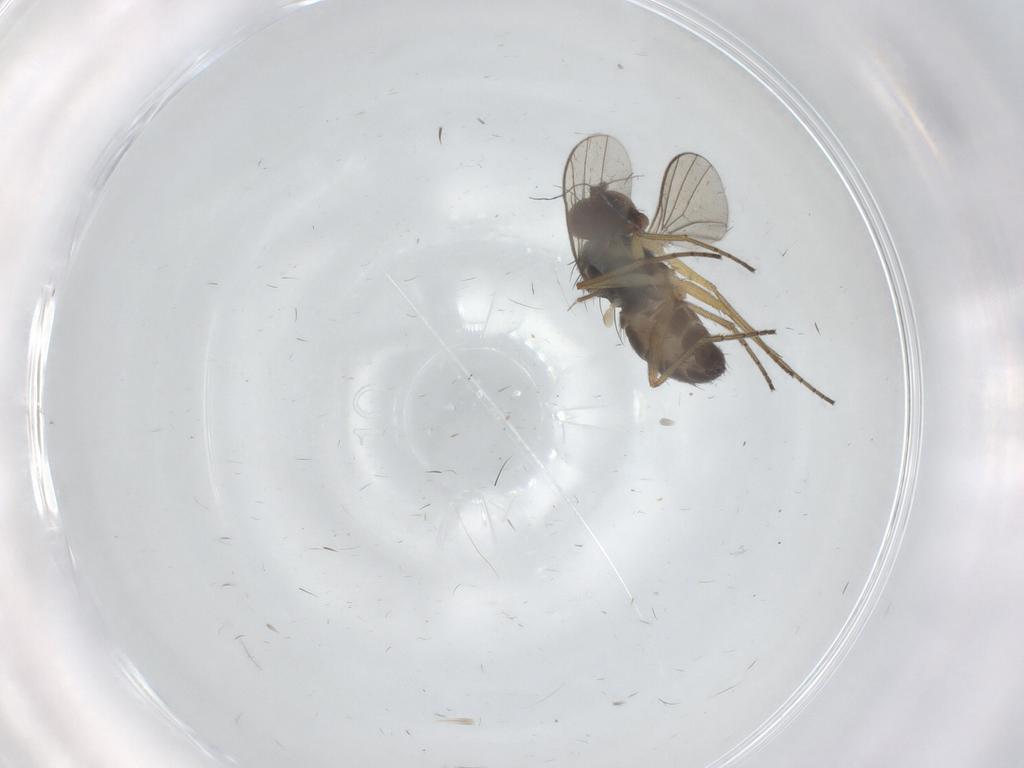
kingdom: Animalia
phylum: Arthropoda
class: Insecta
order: Diptera
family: Dolichopodidae
